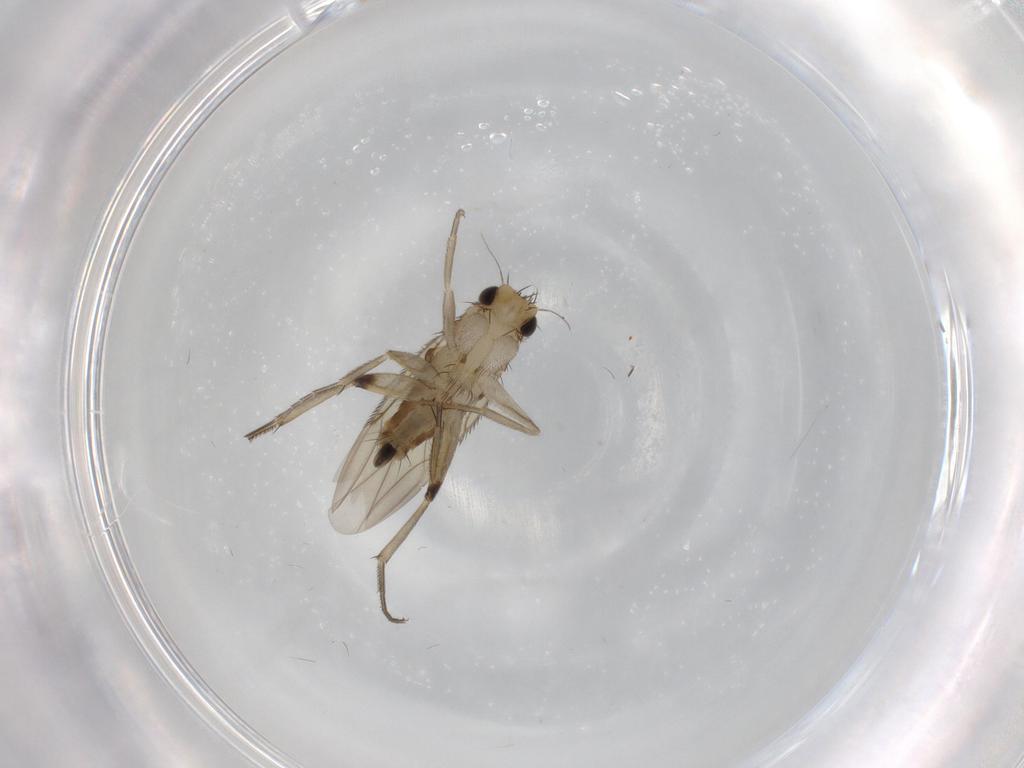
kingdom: Animalia
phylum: Arthropoda
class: Insecta
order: Diptera
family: Phoridae
